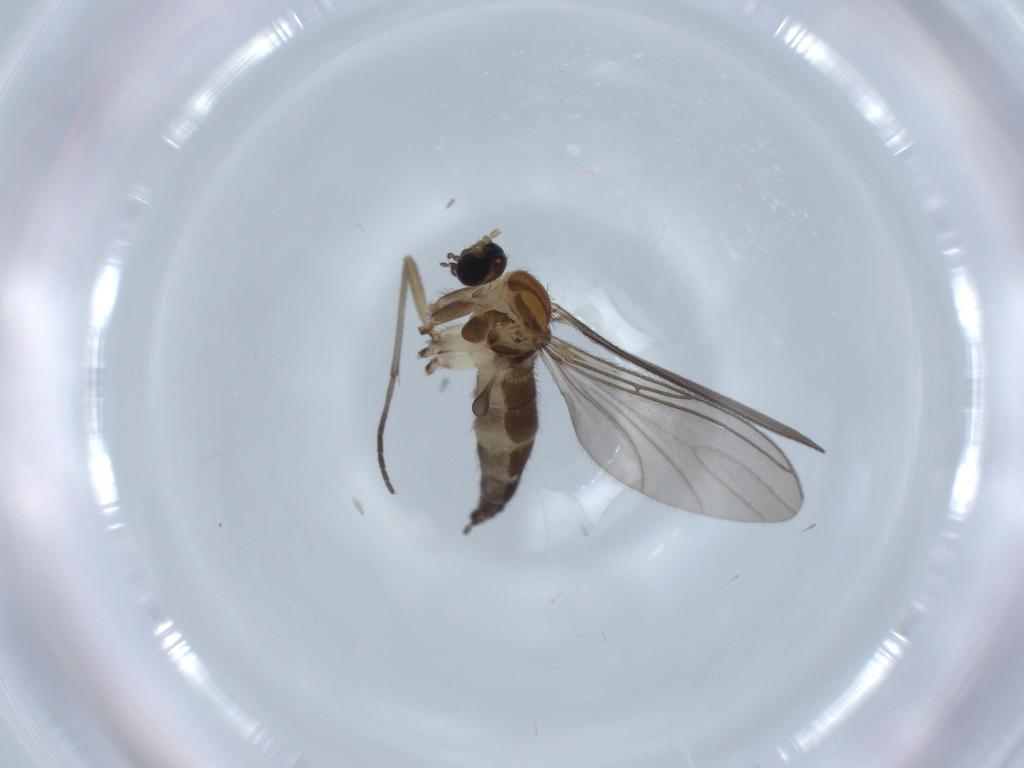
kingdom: Animalia
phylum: Arthropoda
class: Insecta
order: Diptera
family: Sciaridae
